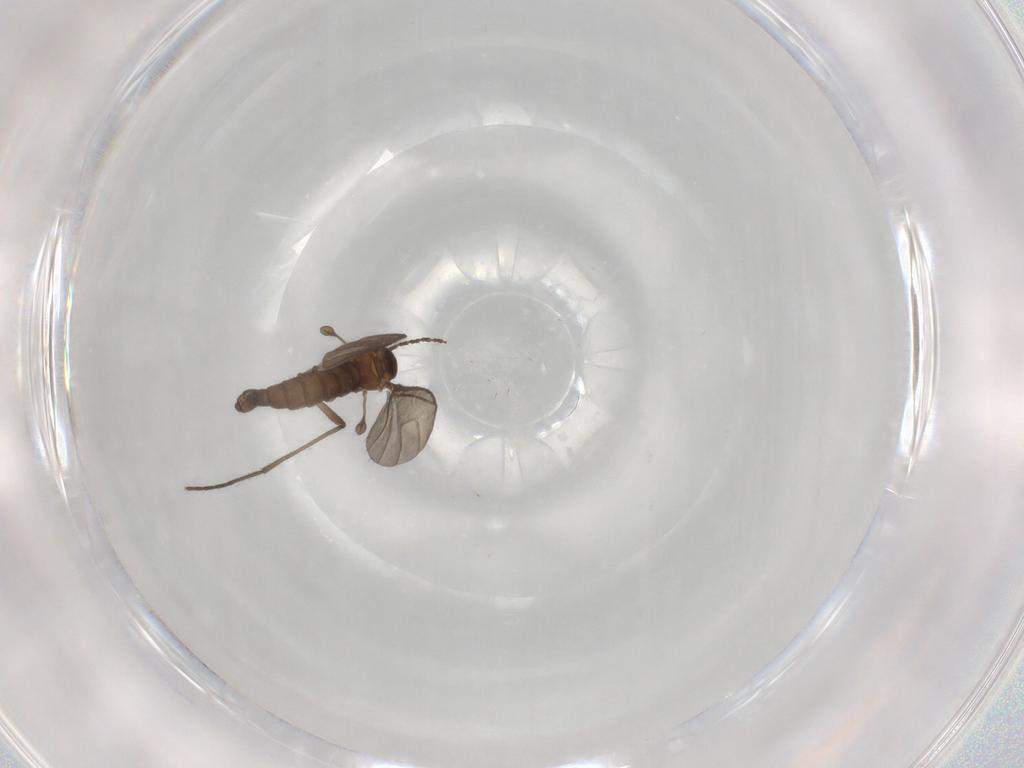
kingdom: Animalia
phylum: Arthropoda
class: Insecta
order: Diptera
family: Sciaridae
